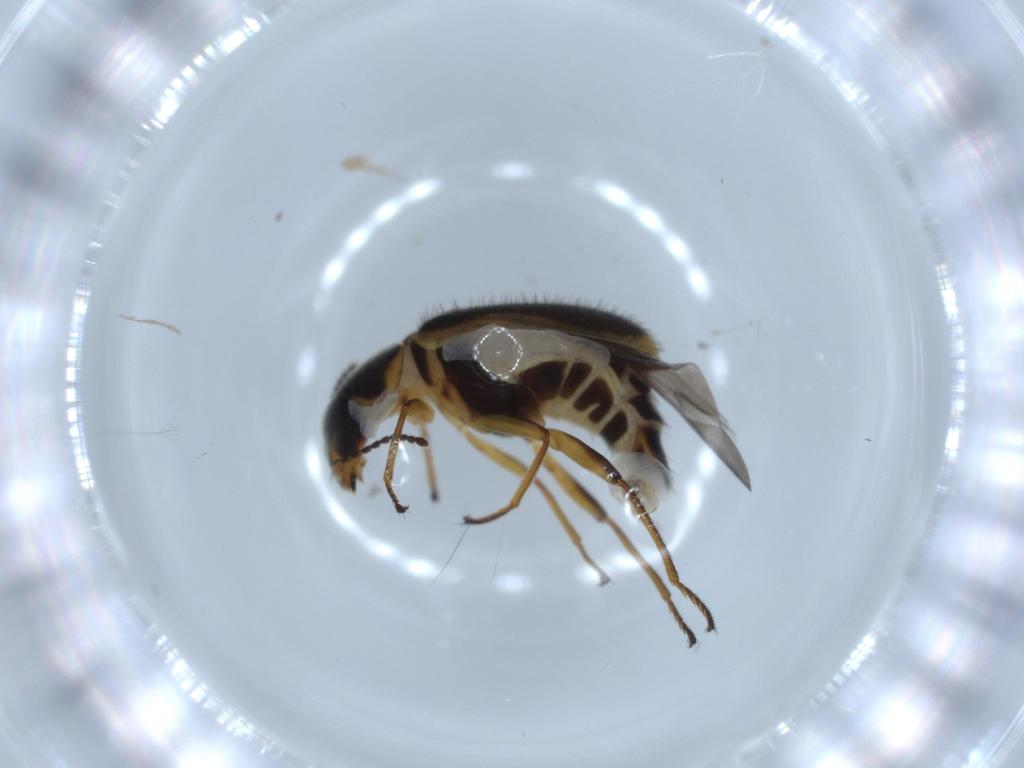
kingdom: Animalia
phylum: Arthropoda
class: Insecta
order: Coleoptera
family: Melyridae
